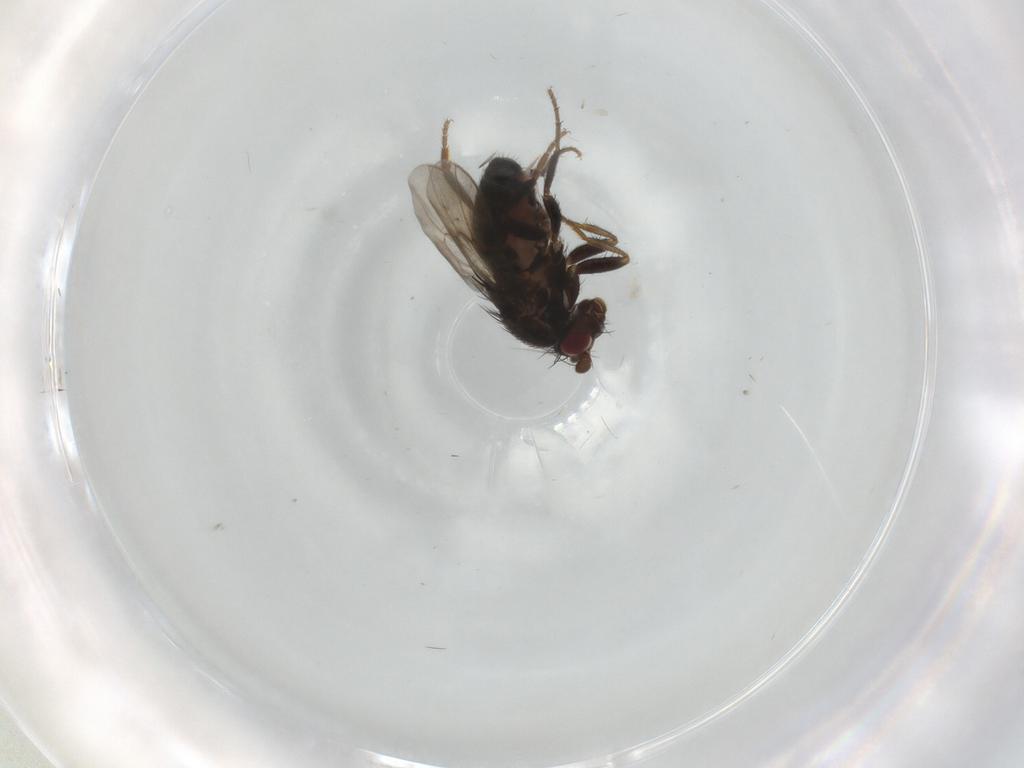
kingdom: Animalia
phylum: Arthropoda
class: Insecta
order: Diptera
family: Sphaeroceridae
